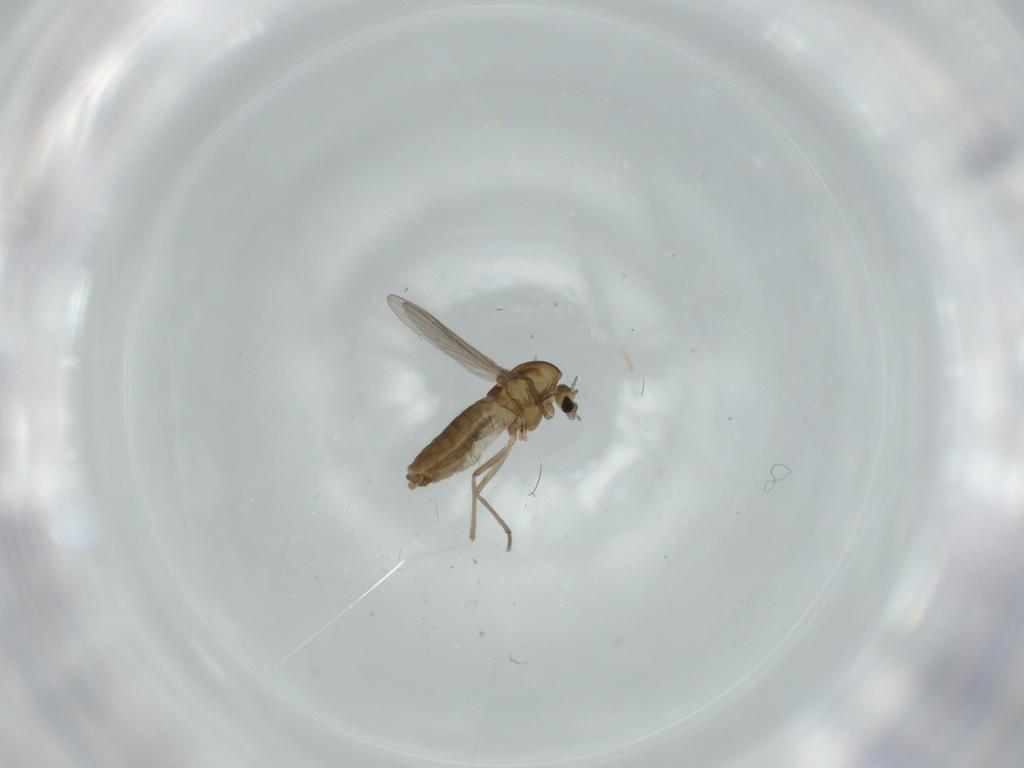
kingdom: Animalia
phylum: Arthropoda
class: Insecta
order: Diptera
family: Chironomidae
